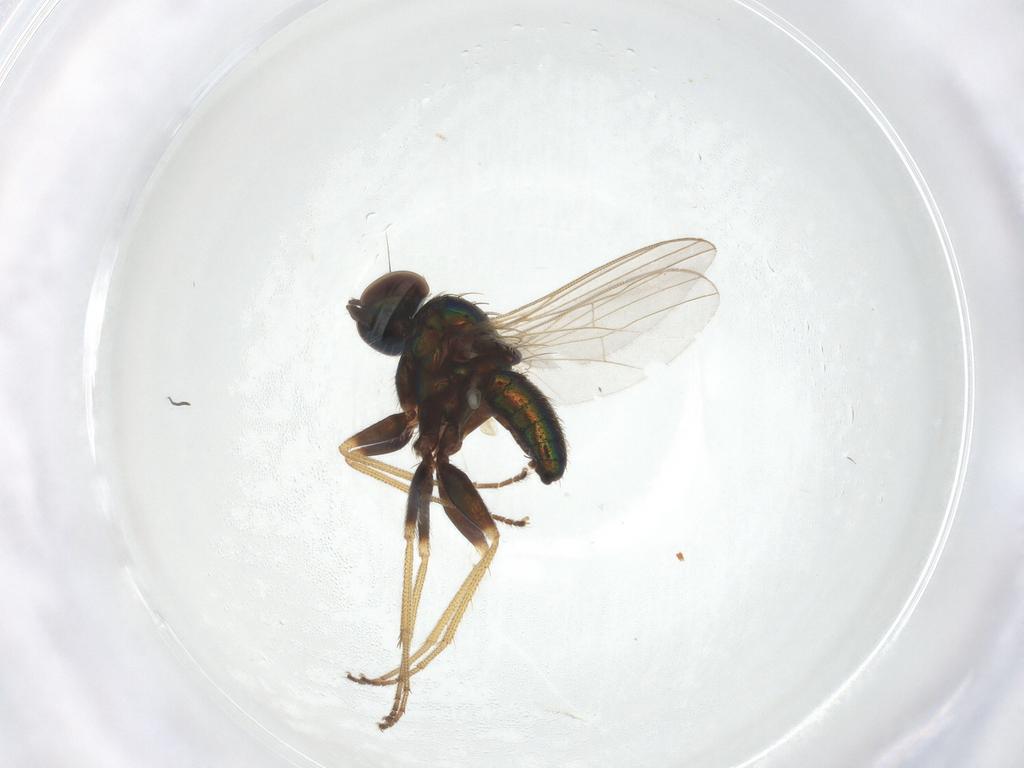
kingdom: Animalia
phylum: Arthropoda
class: Insecta
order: Diptera
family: Cecidomyiidae
